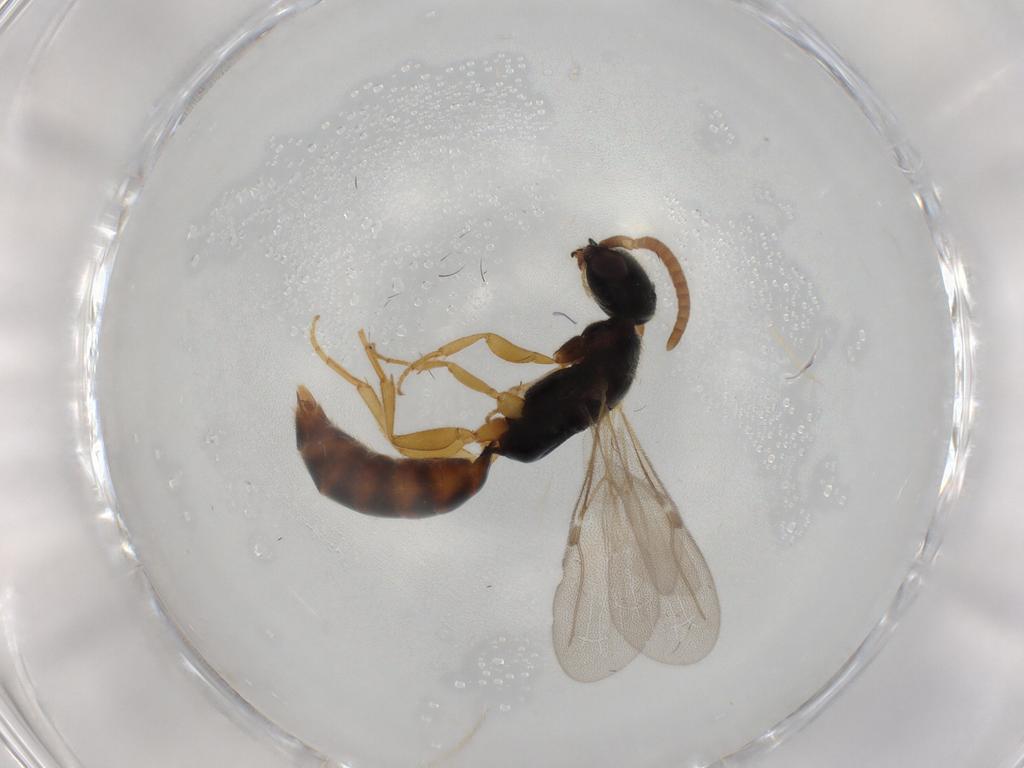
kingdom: Animalia
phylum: Arthropoda
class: Insecta
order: Hymenoptera
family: Bethylidae
